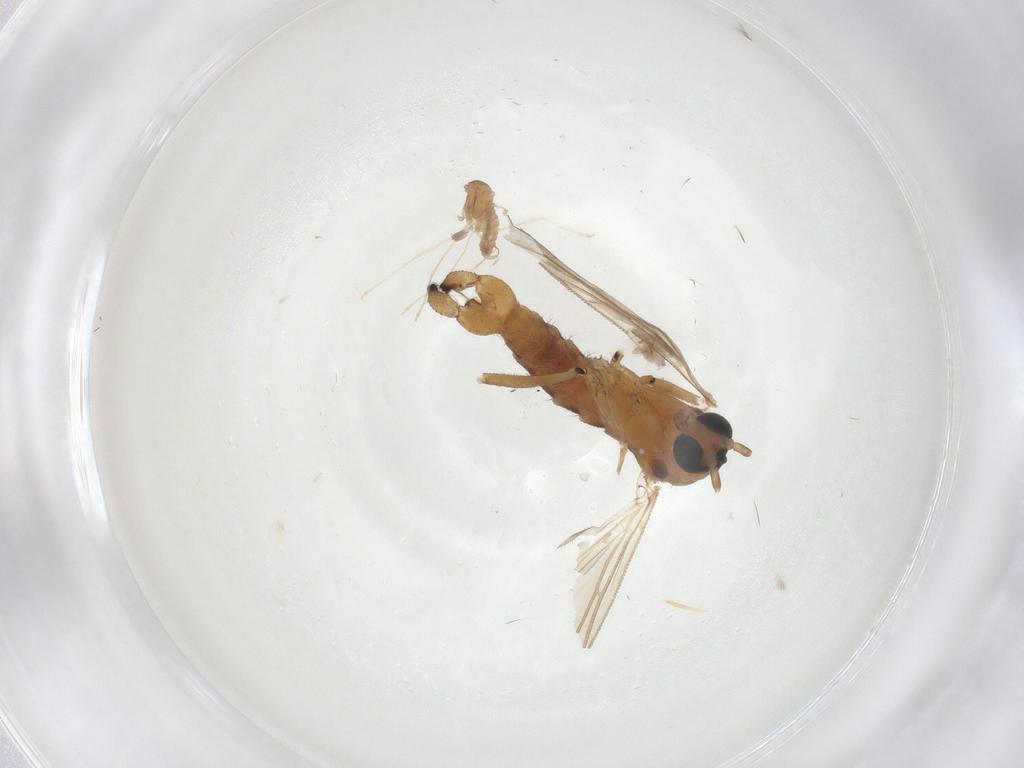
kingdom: Animalia
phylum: Arthropoda
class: Insecta
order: Diptera
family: Sciaridae
